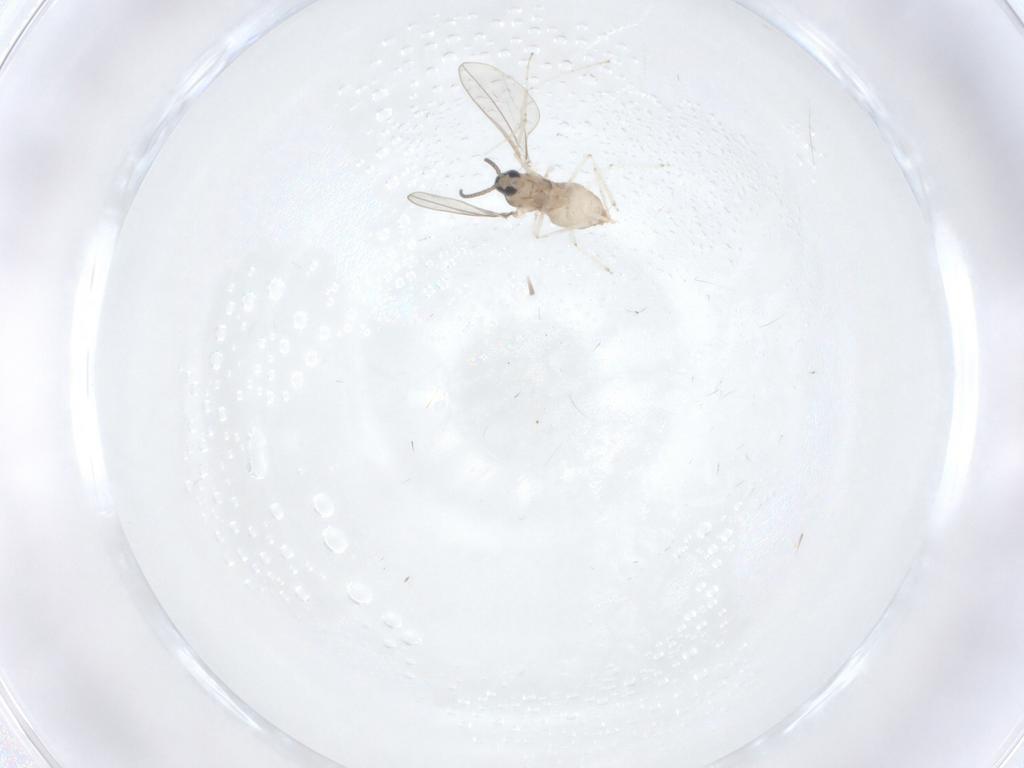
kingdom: Animalia
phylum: Arthropoda
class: Insecta
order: Diptera
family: Cecidomyiidae
